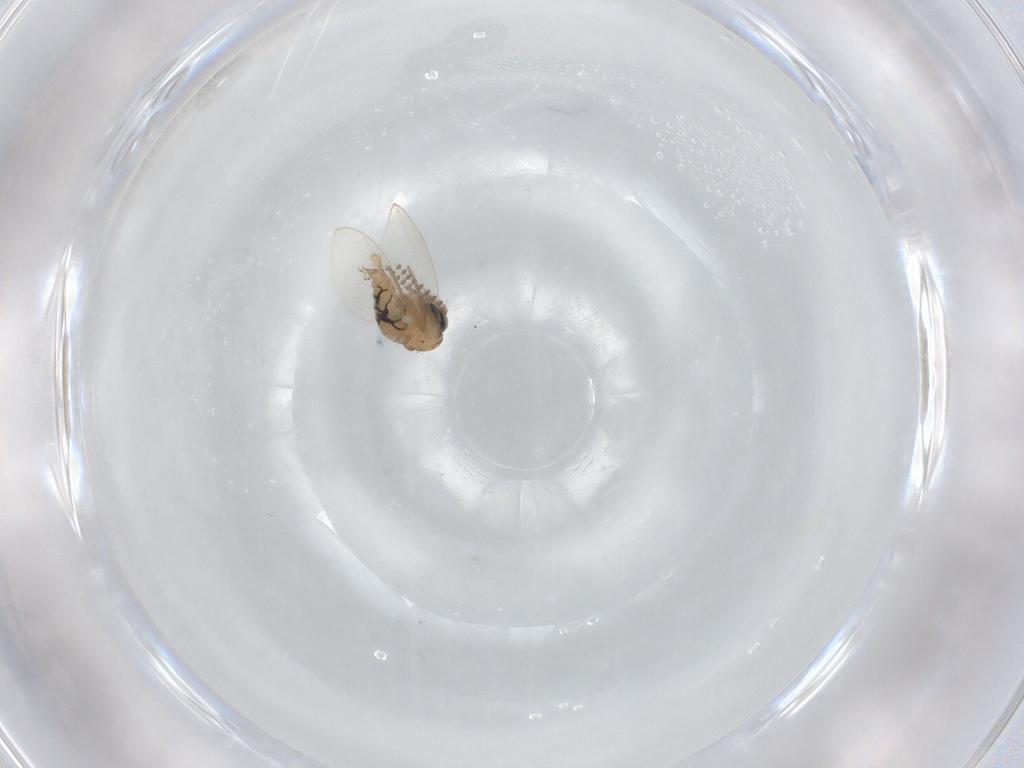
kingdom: Animalia
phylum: Arthropoda
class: Insecta
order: Diptera
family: Psychodidae
